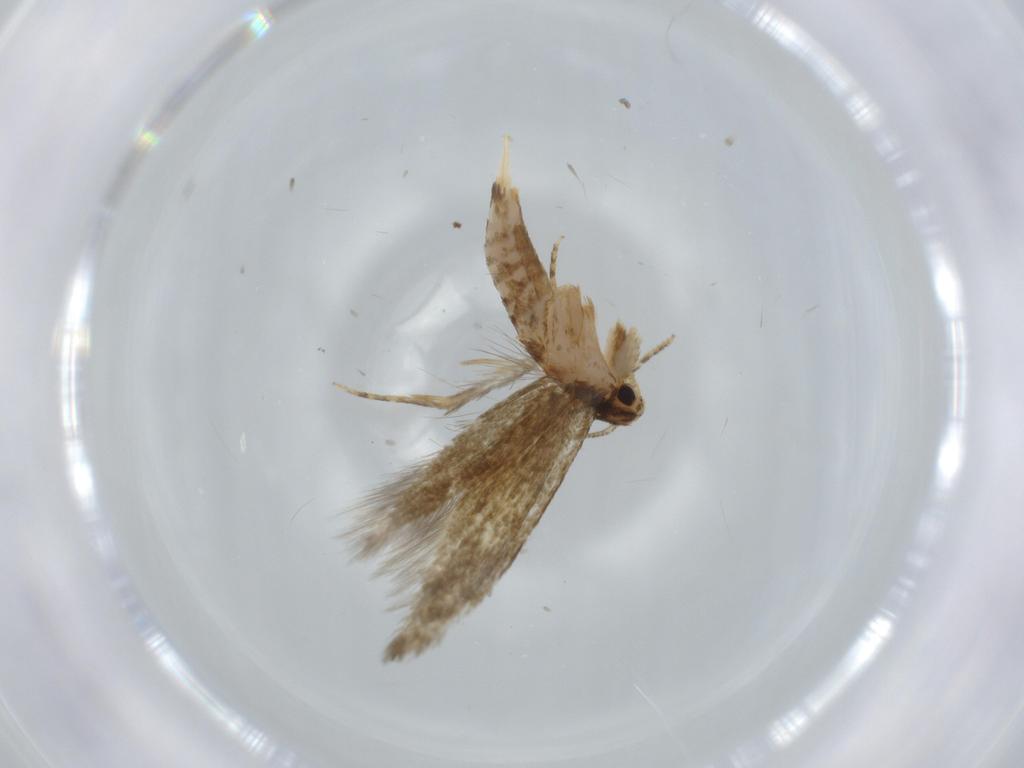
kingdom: Animalia
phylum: Arthropoda
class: Insecta
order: Lepidoptera
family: Tineidae
